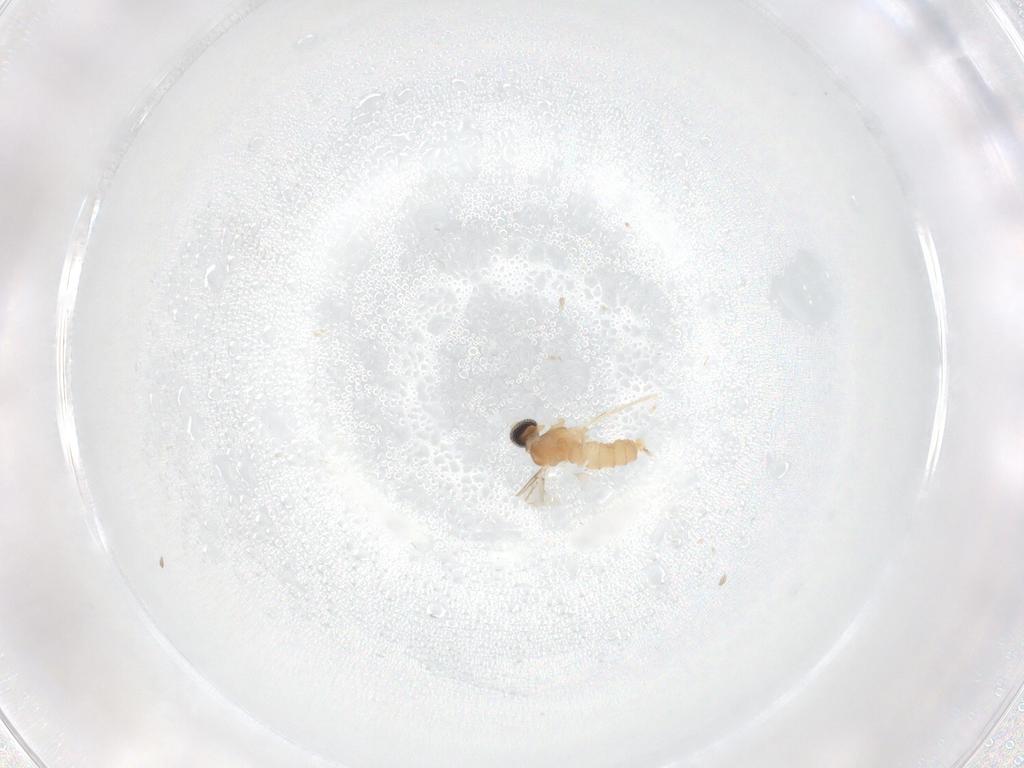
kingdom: Animalia
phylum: Arthropoda
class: Insecta
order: Diptera
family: Cecidomyiidae
